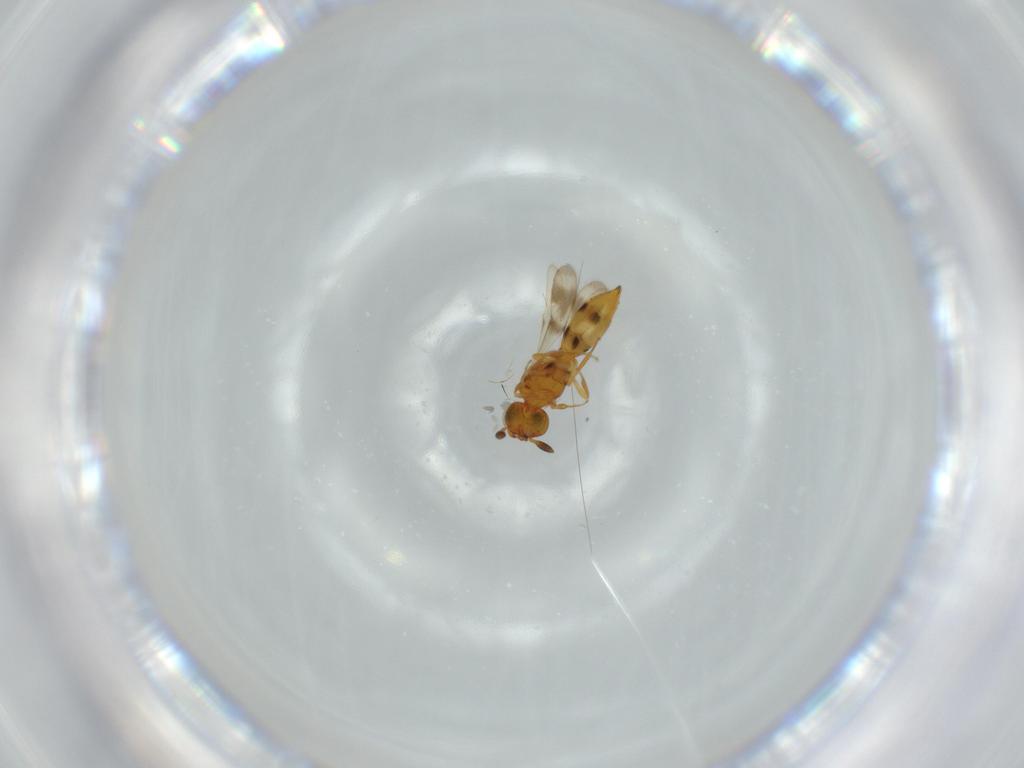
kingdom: Animalia
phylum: Arthropoda
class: Insecta
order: Hymenoptera
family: Scelionidae
